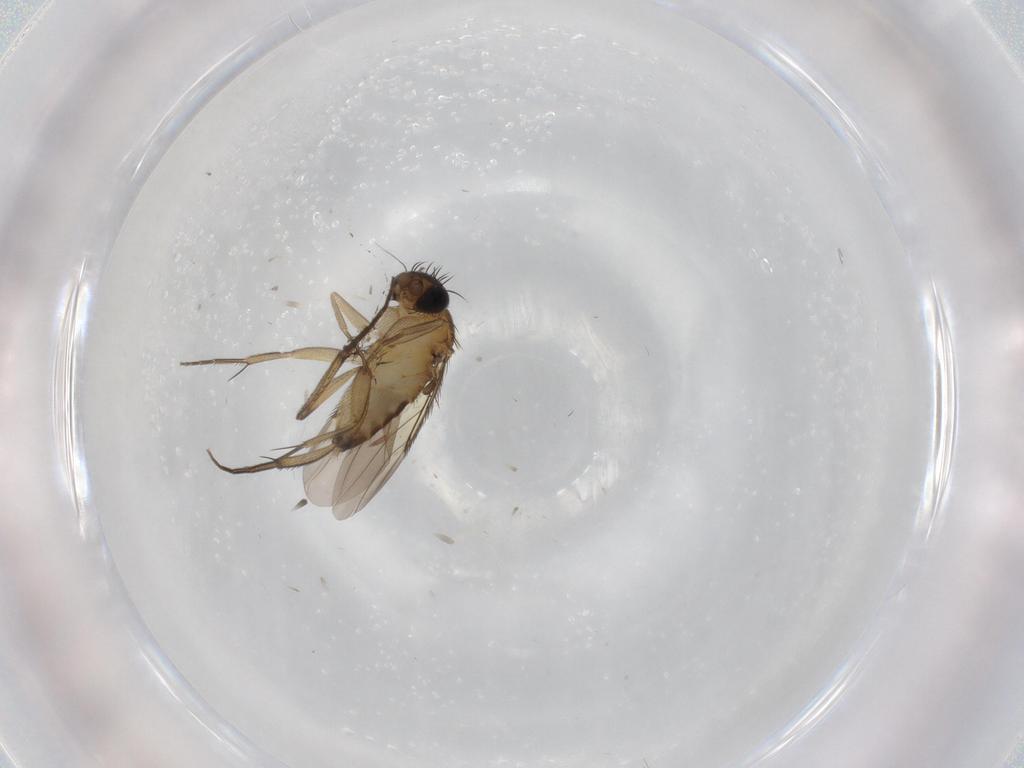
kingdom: Animalia
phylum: Arthropoda
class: Insecta
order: Diptera
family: Phoridae
